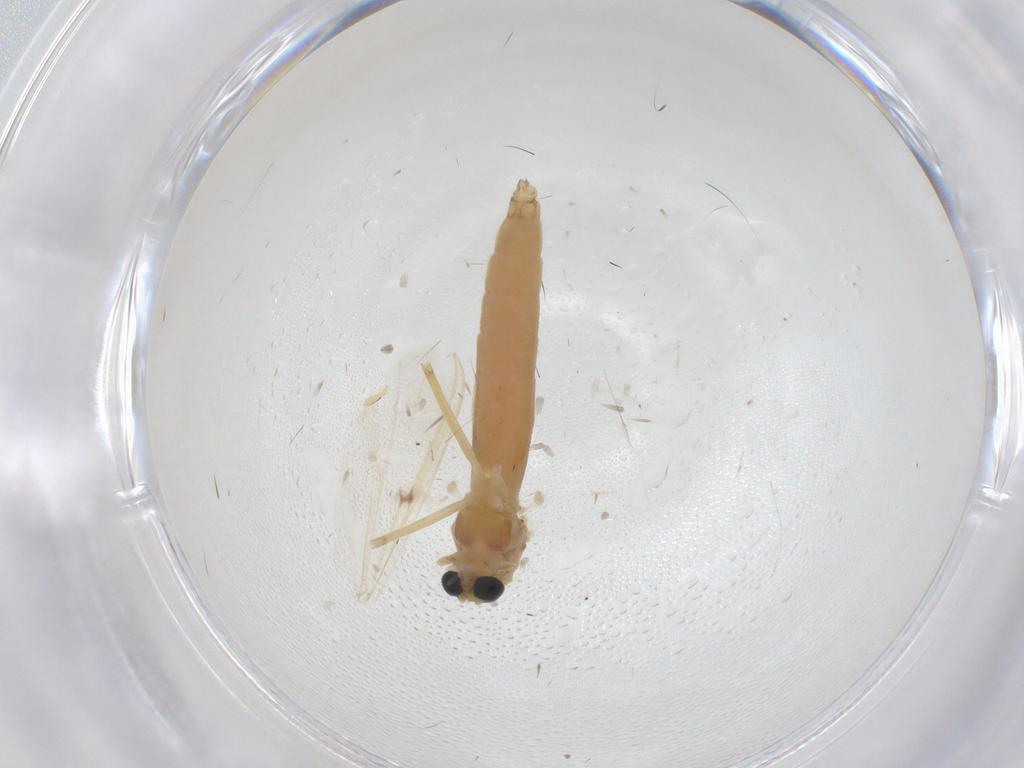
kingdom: Animalia
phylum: Arthropoda
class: Insecta
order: Diptera
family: Chironomidae
